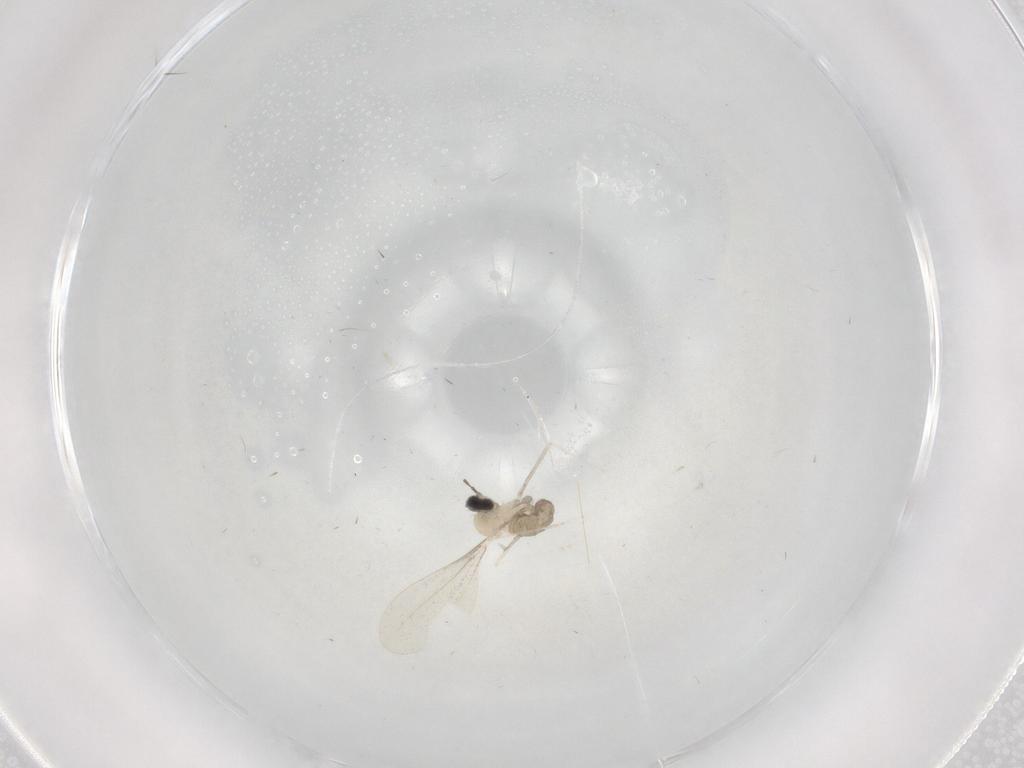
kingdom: Animalia
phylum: Arthropoda
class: Insecta
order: Diptera
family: Cecidomyiidae
